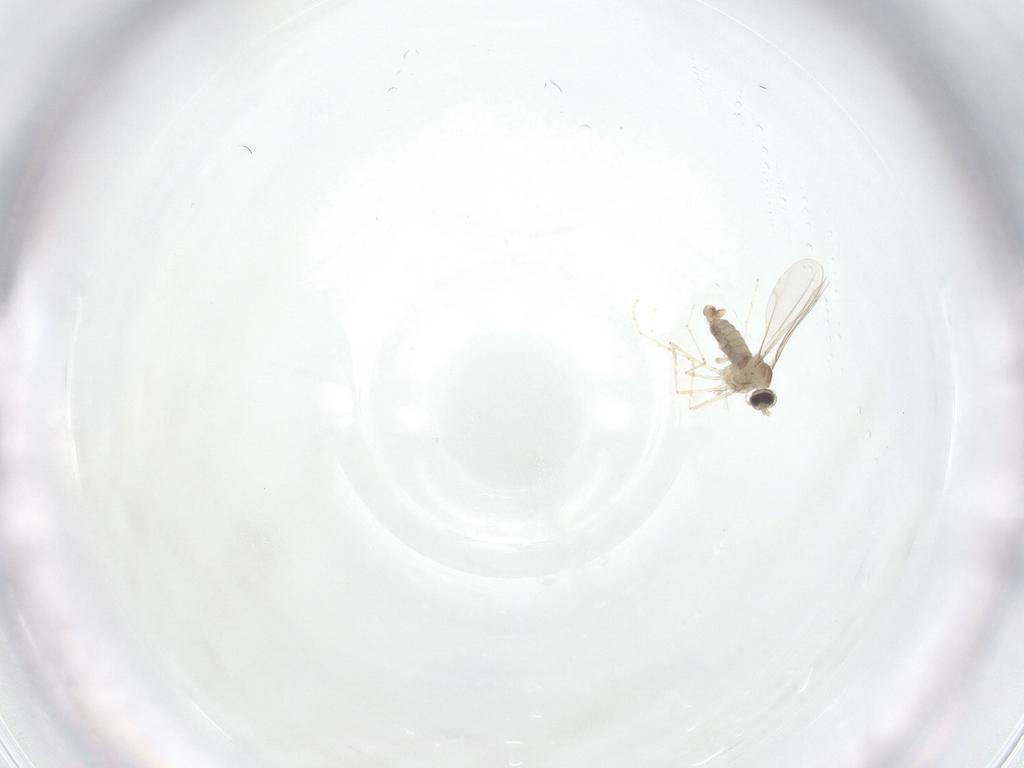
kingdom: Animalia
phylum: Arthropoda
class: Insecta
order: Diptera
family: Cecidomyiidae
